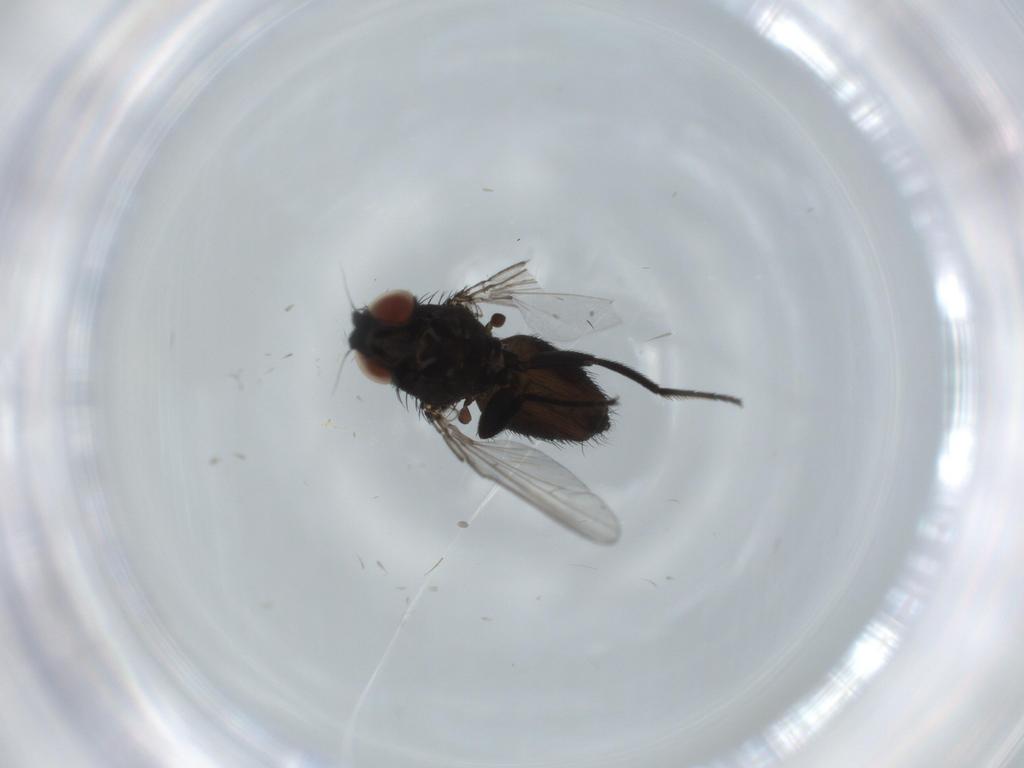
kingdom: Animalia
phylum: Arthropoda
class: Insecta
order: Diptera
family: Milichiidae
